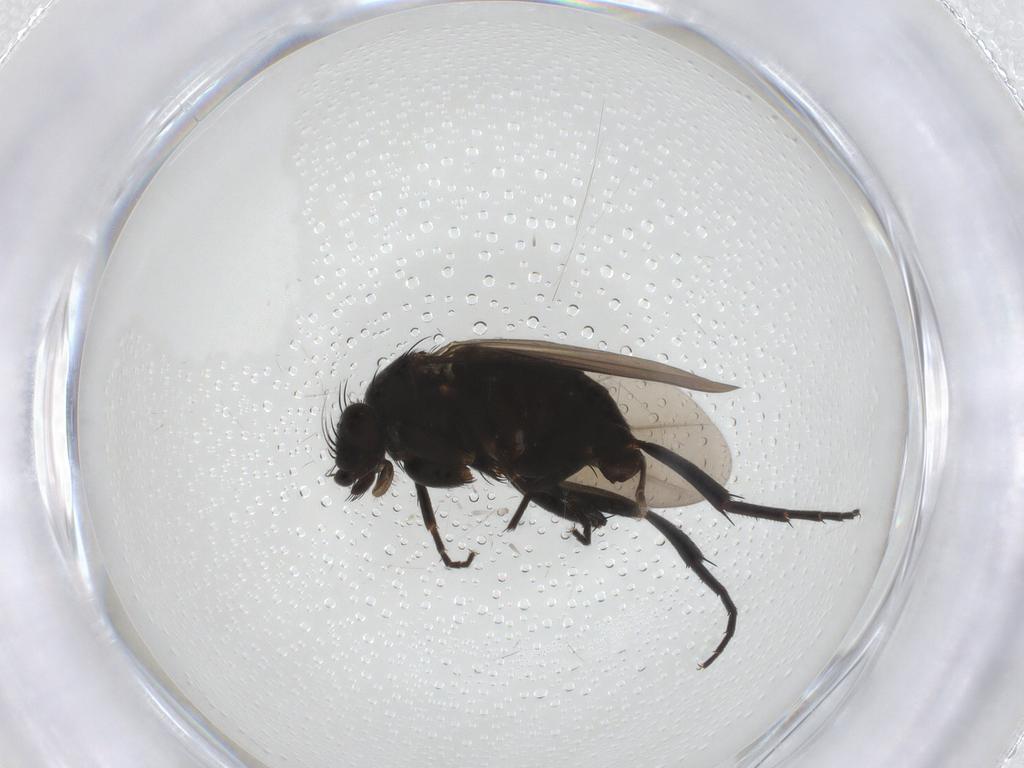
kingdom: Animalia
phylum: Arthropoda
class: Insecta
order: Diptera
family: Phoridae
